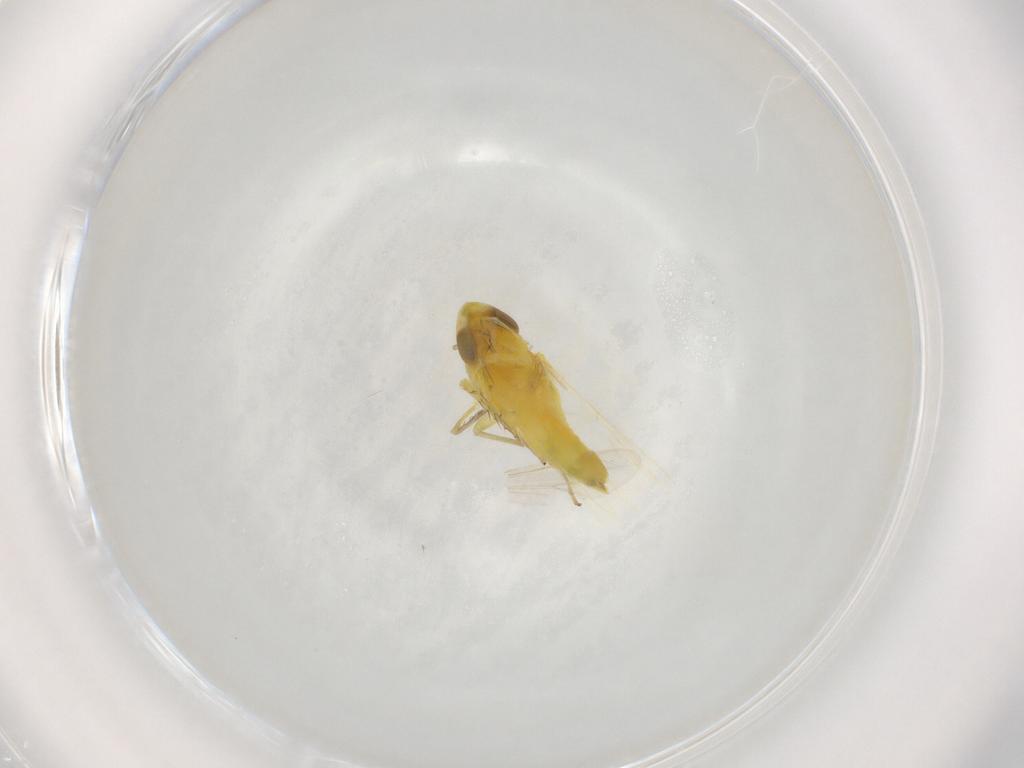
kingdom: Animalia
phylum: Arthropoda
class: Insecta
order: Hemiptera
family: Cicadellidae
